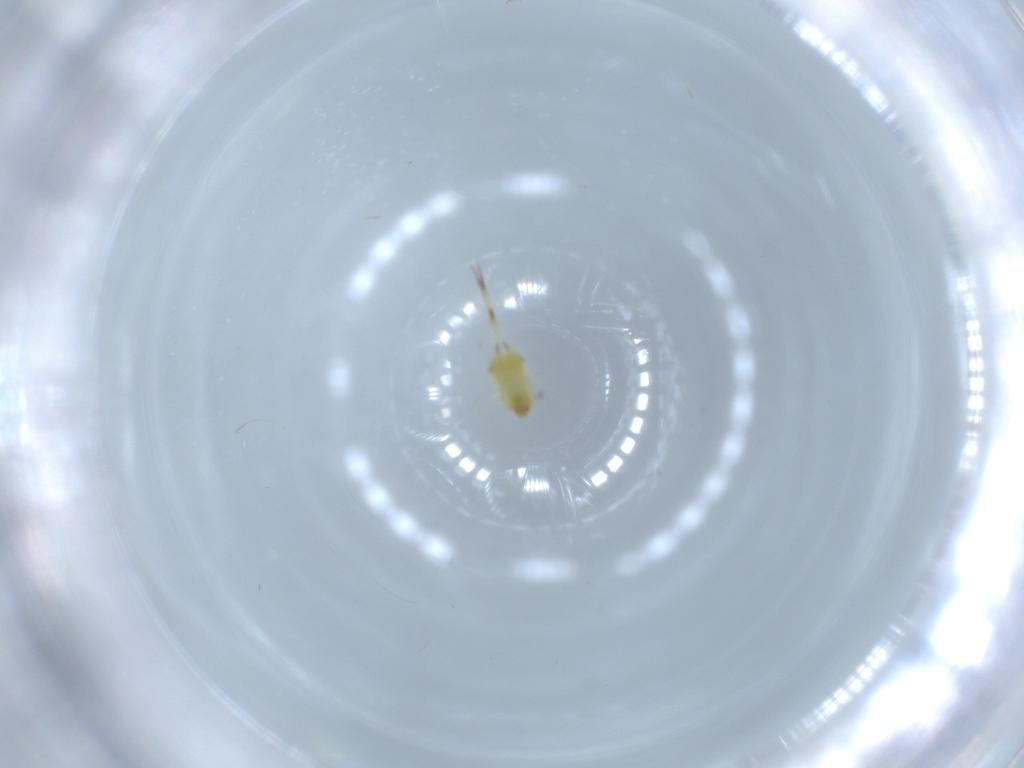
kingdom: Animalia
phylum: Arthropoda
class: Insecta
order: Hemiptera
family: Aleyrodidae
